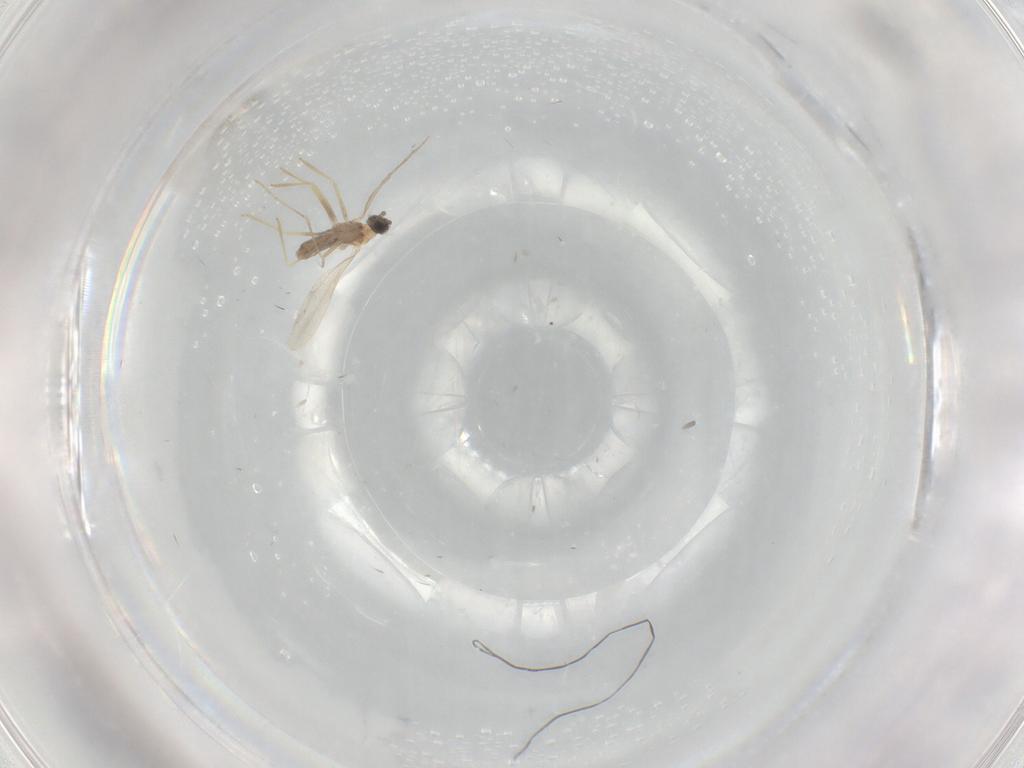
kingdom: Animalia
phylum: Arthropoda
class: Insecta
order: Diptera
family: Cecidomyiidae
